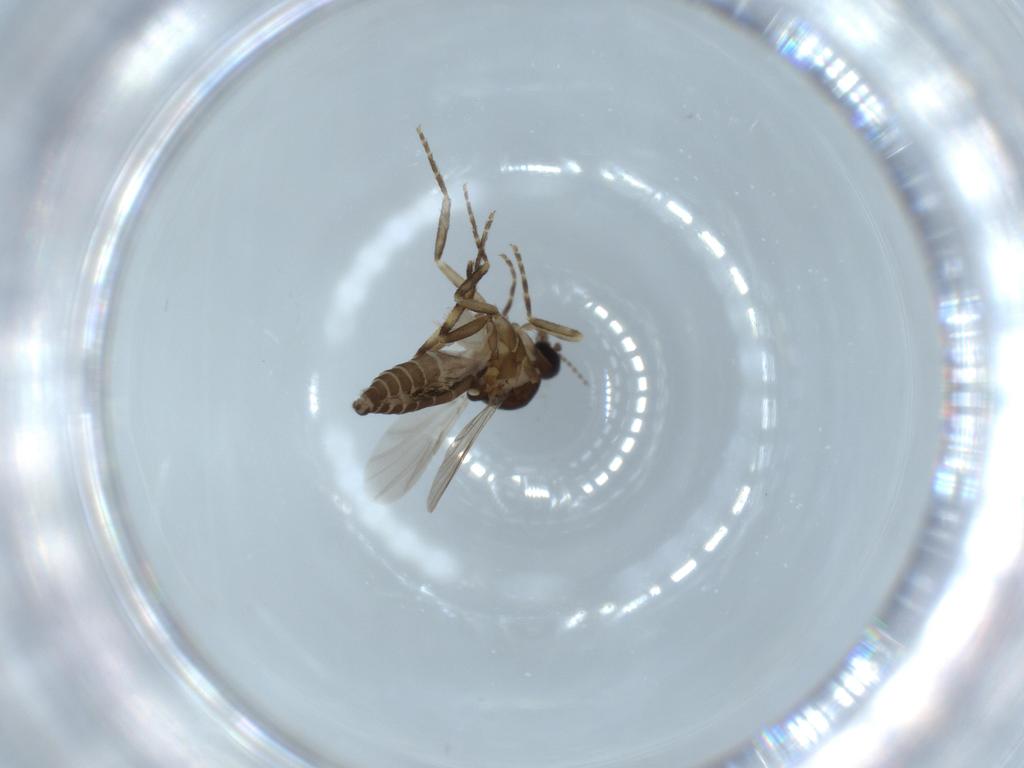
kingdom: Animalia
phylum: Arthropoda
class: Insecta
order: Diptera
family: Ceratopogonidae
